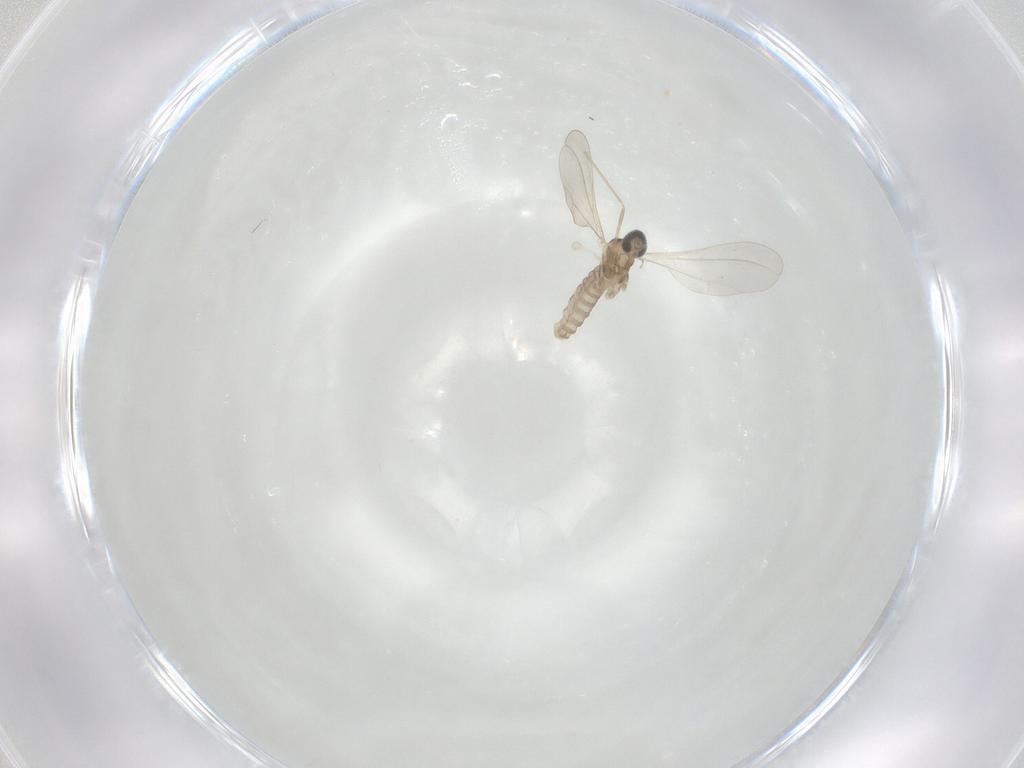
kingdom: Animalia
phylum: Arthropoda
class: Insecta
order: Diptera
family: Cecidomyiidae
